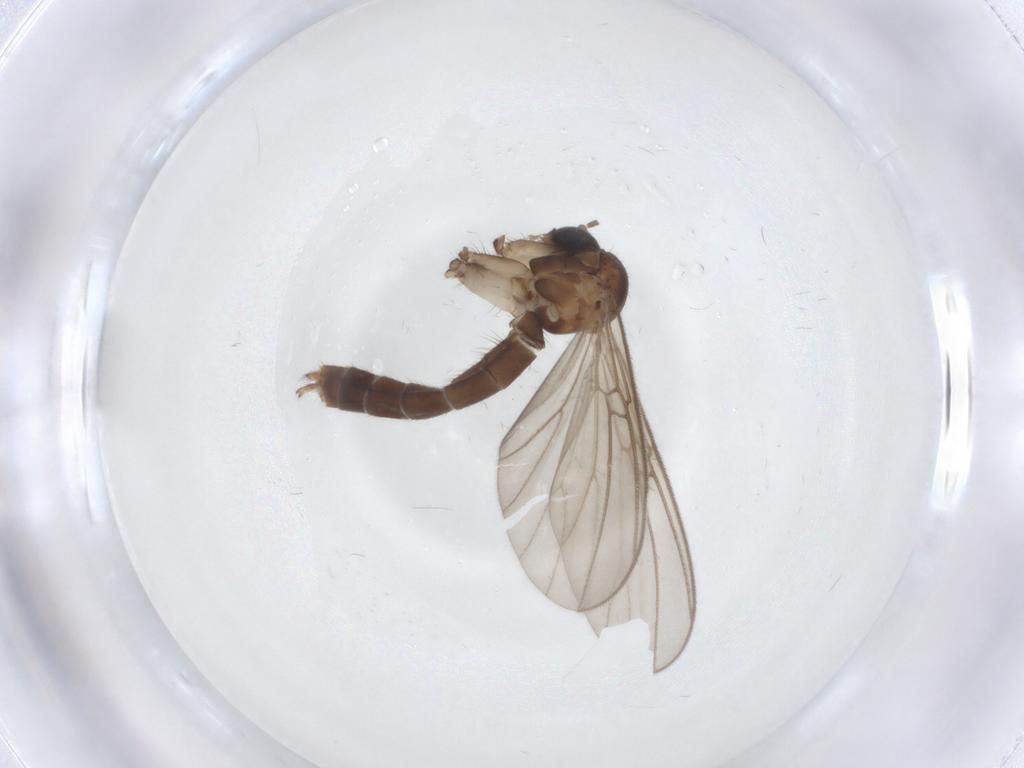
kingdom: Animalia
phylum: Arthropoda
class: Insecta
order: Diptera
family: Mycetophilidae
